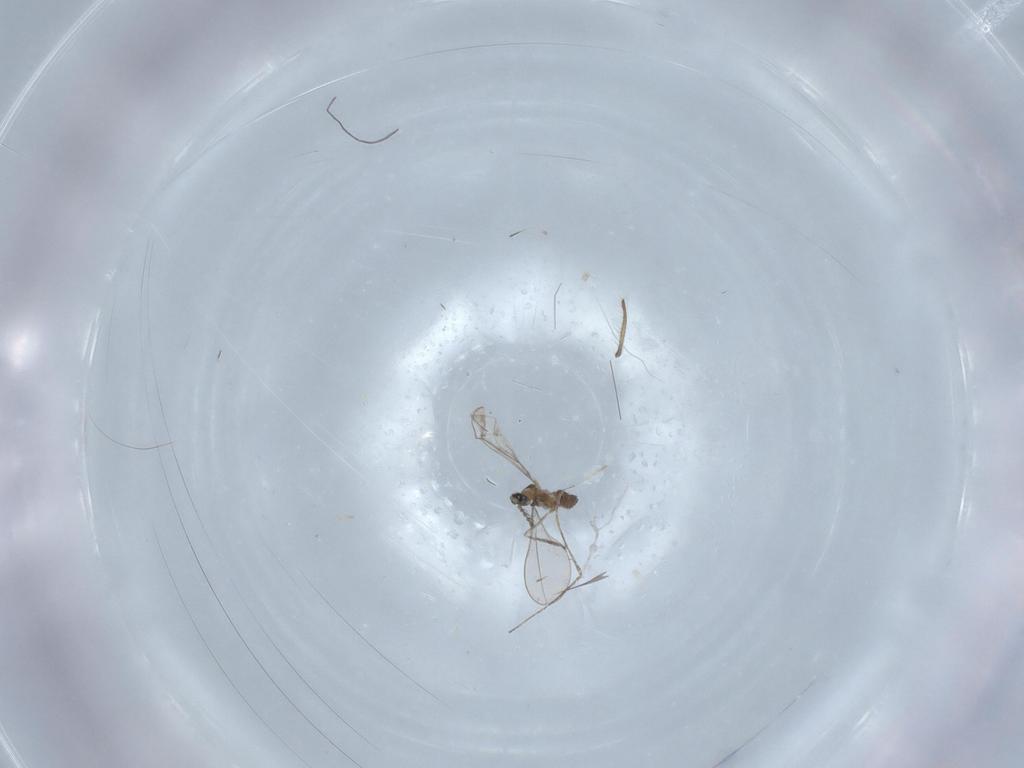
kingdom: Animalia
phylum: Arthropoda
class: Insecta
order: Diptera
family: Cecidomyiidae
